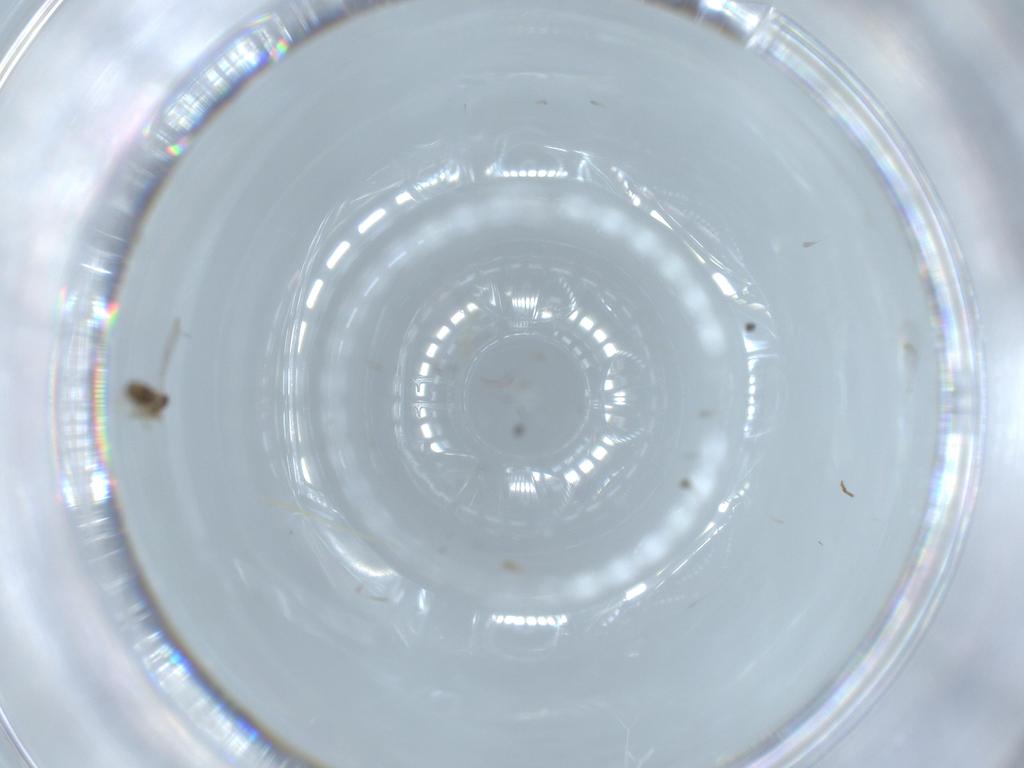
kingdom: Animalia
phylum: Arthropoda
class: Insecta
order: Hymenoptera
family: Aphelinidae
